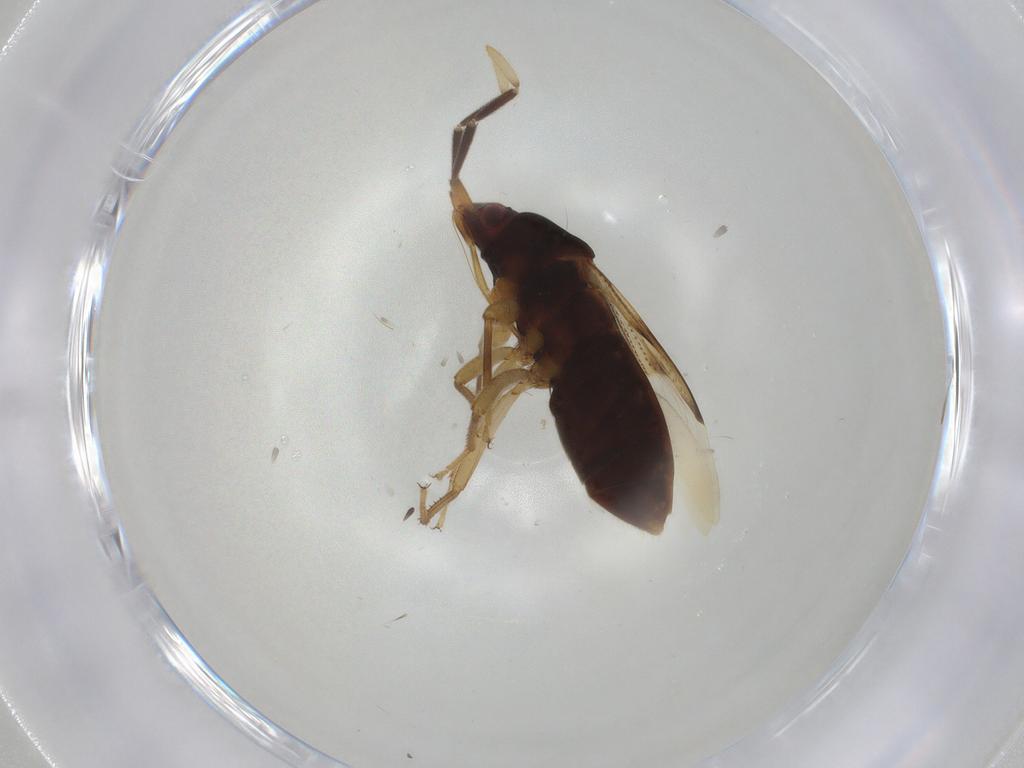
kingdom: Animalia
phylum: Arthropoda
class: Insecta
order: Hemiptera
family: Rhyparochromidae
